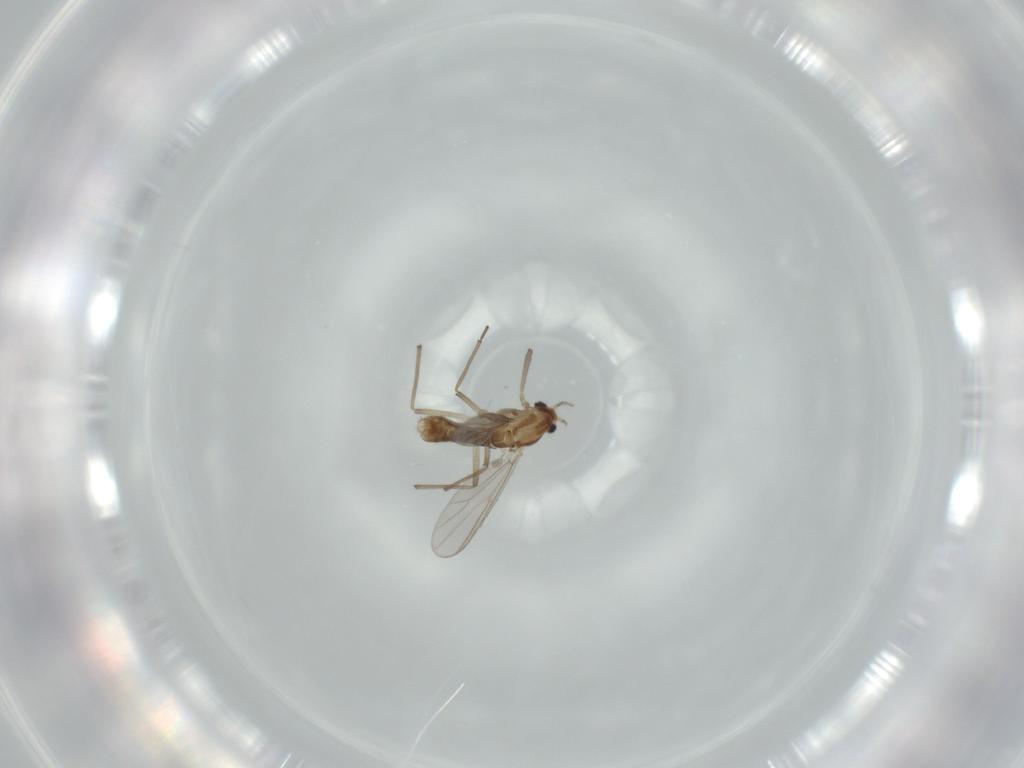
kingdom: Animalia
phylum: Arthropoda
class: Insecta
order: Diptera
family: Chironomidae
